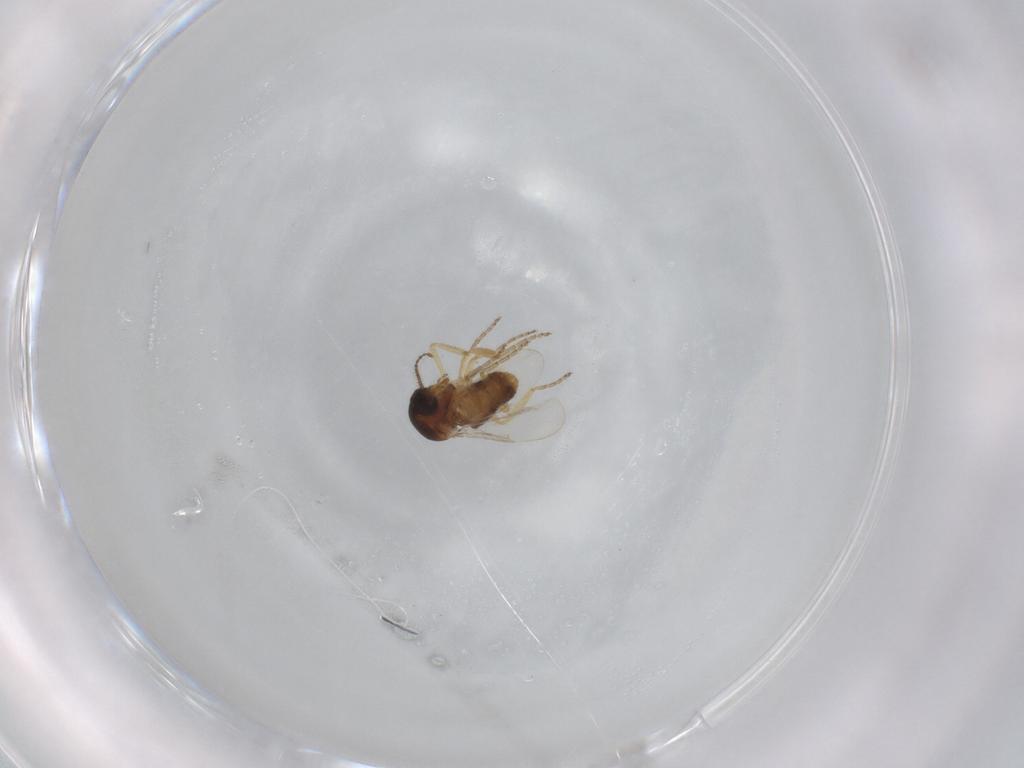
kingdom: Animalia
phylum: Arthropoda
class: Insecta
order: Diptera
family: Ceratopogonidae
